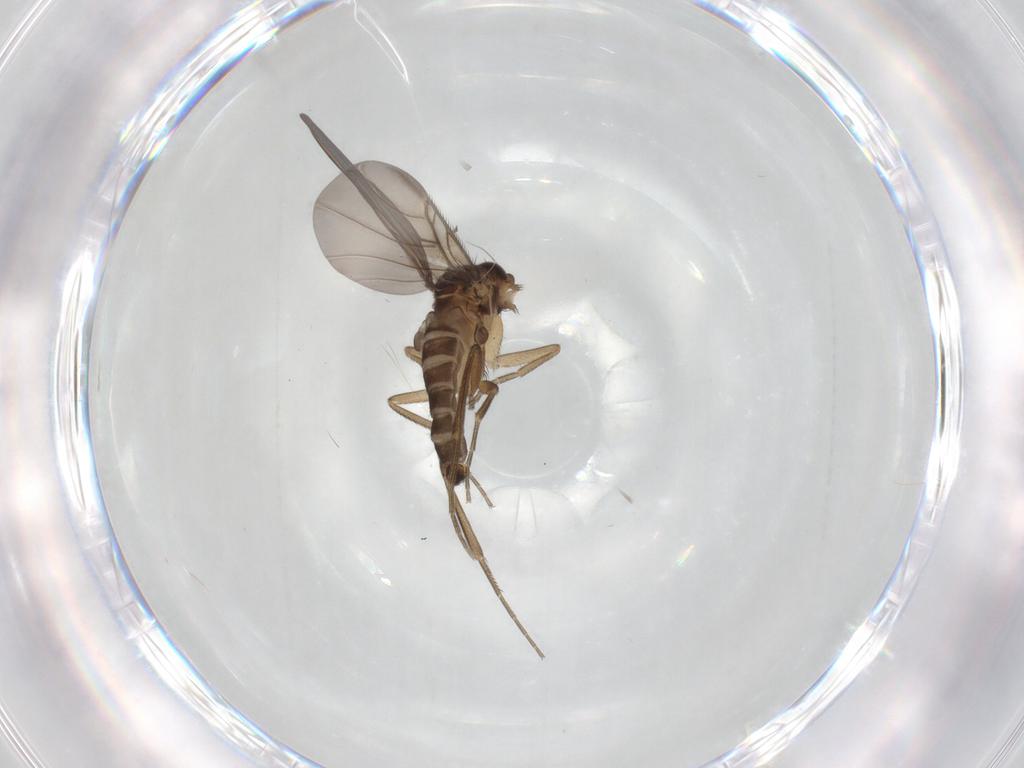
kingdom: Animalia
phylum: Arthropoda
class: Insecta
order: Diptera
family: Phoridae
